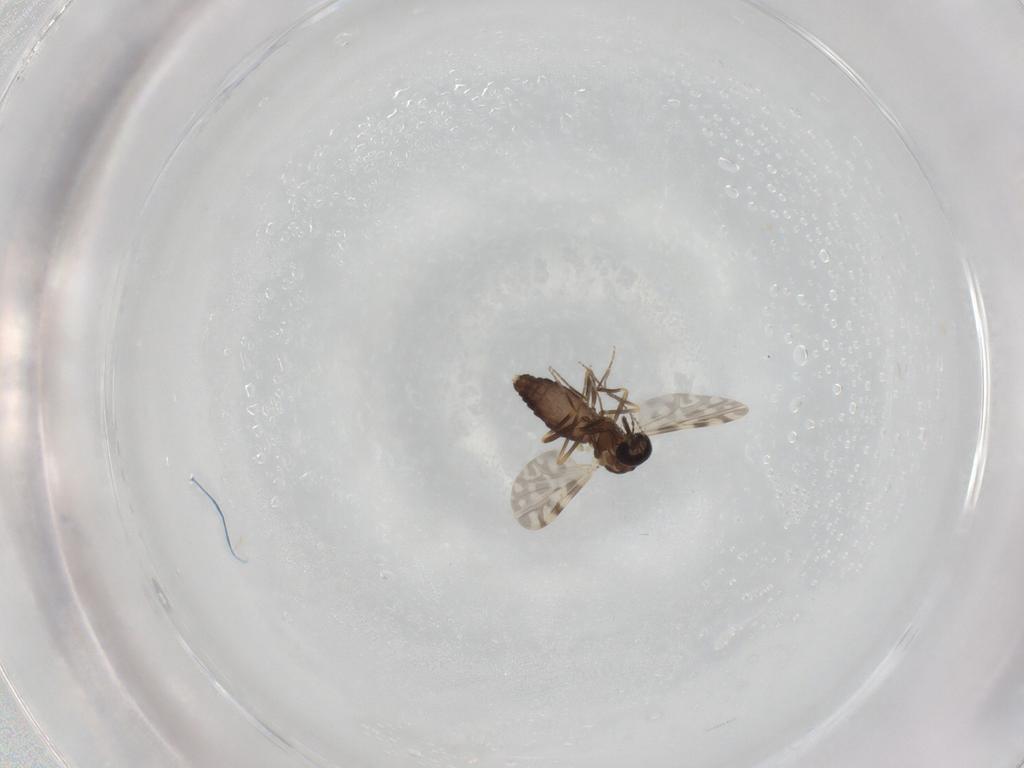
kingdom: Animalia
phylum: Arthropoda
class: Insecta
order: Diptera
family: Ceratopogonidae
